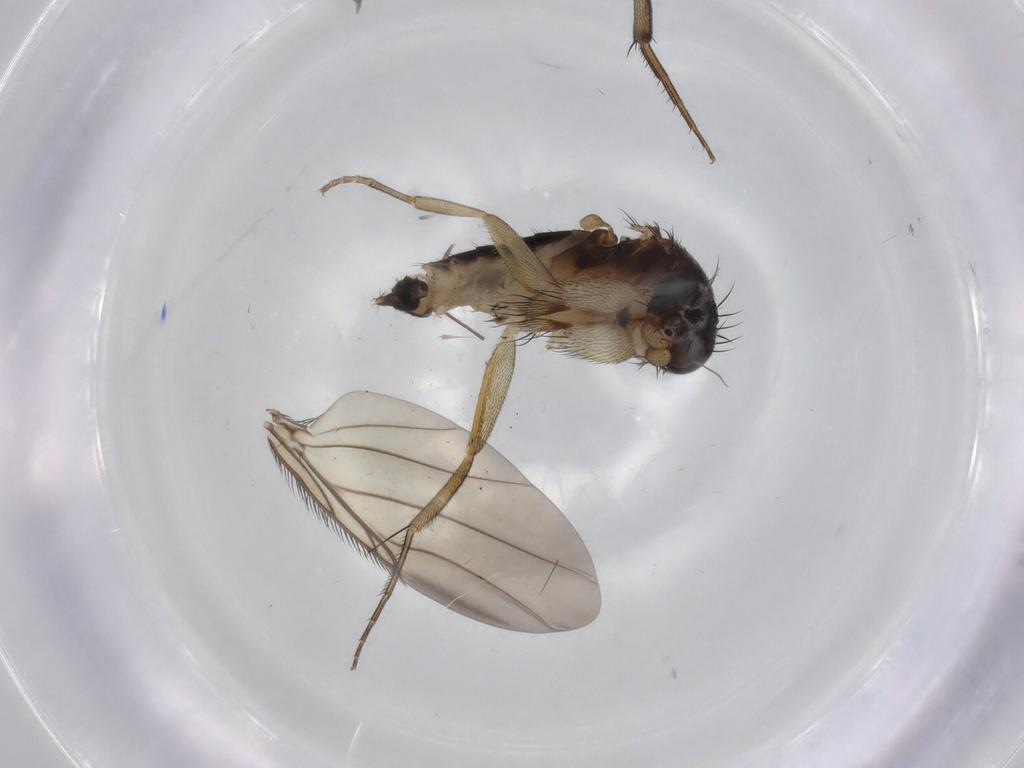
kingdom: Animalia
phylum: Arthropoda
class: Insecta
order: Diptera
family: Phoridae
